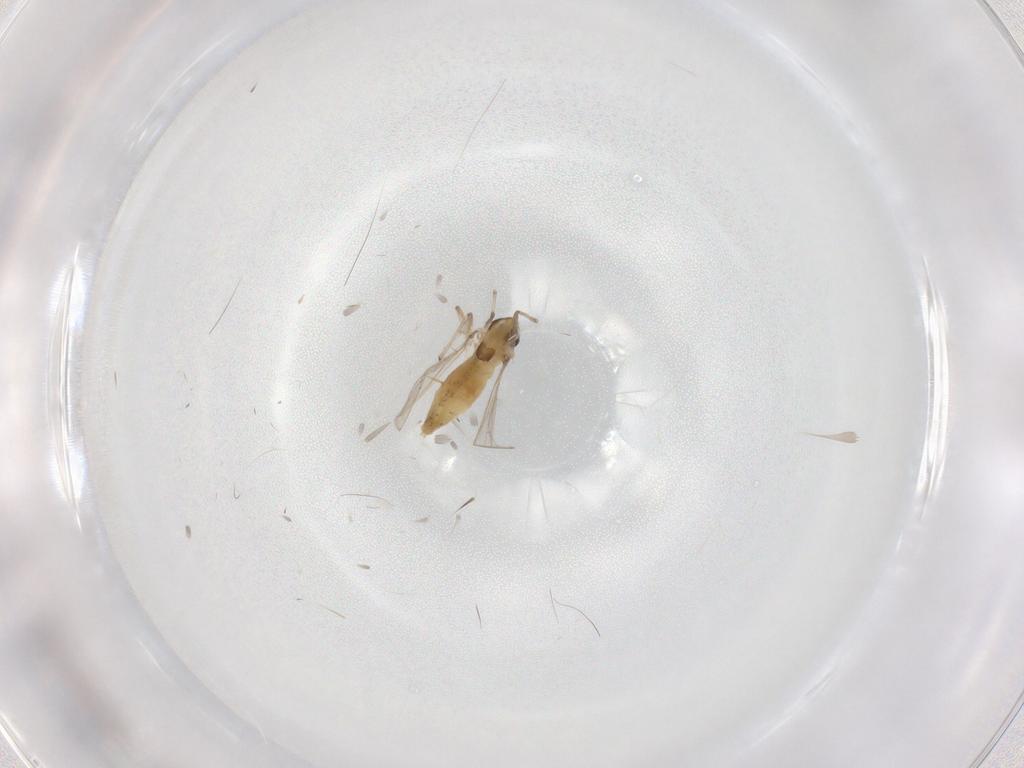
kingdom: Animalia
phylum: Arthropoda
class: Insecta
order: Diptera
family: Chironomidae
